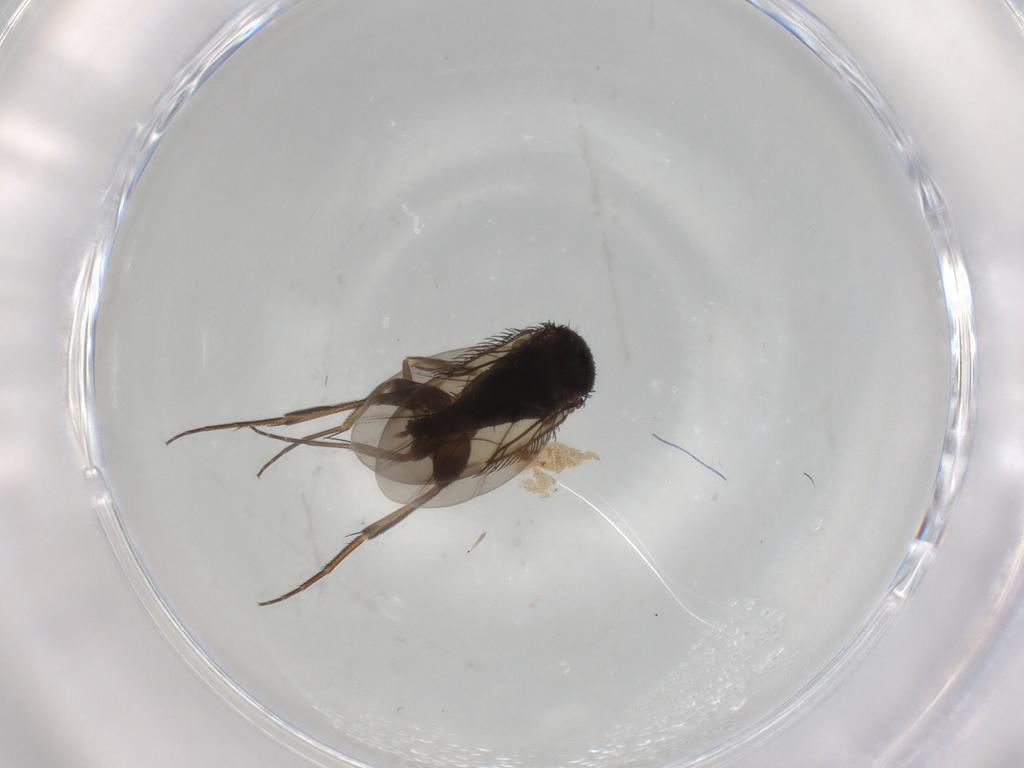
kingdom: Animalia
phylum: Arthropoda
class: Insecta
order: Diptera
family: Phoridae
